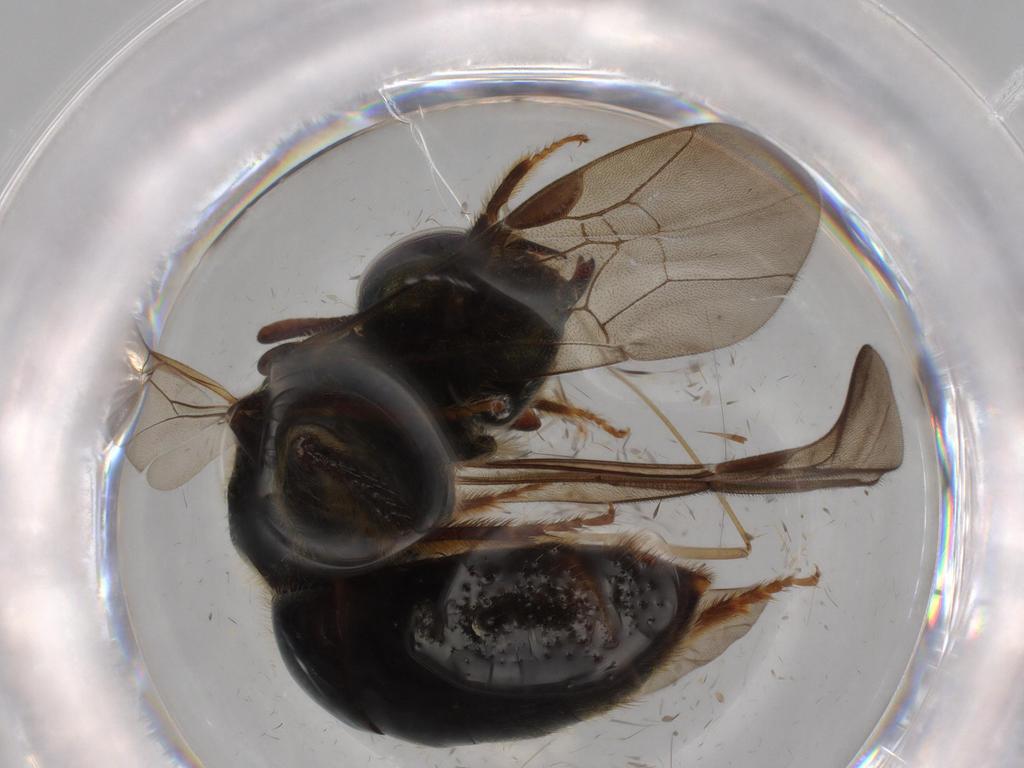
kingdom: Animalia
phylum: Arthropoda
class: Insecta
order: Hymenoptera
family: Halictidae
